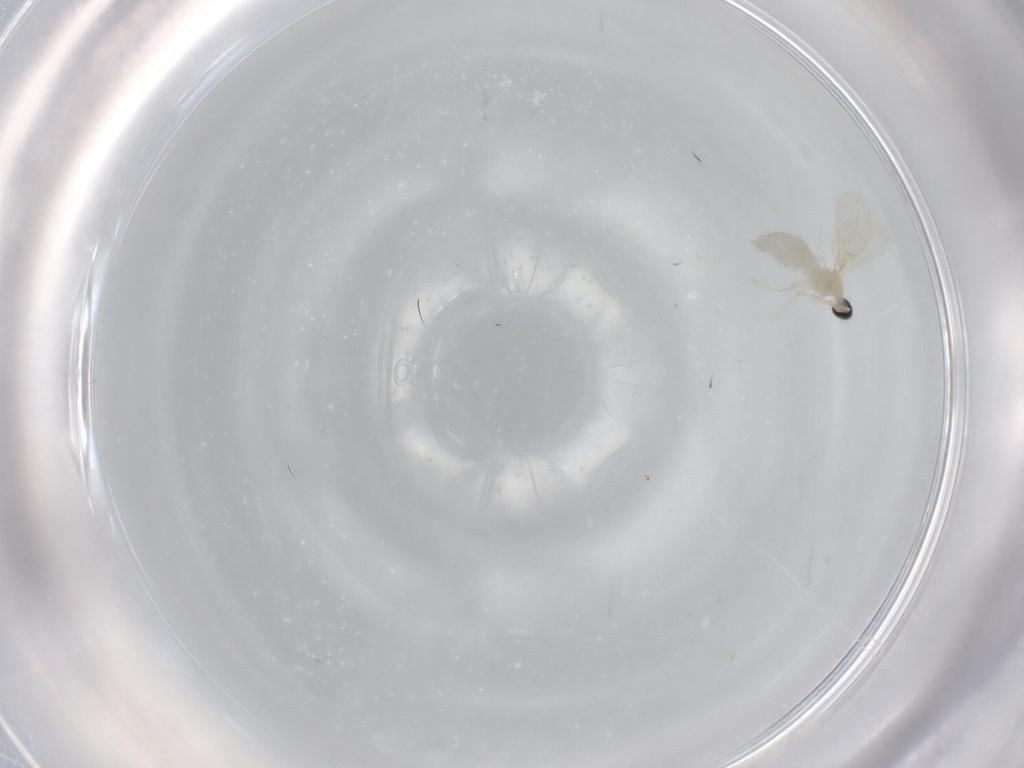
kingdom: Animalia
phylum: Arthropoda
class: Insecta
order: Diptera
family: Cecidomyiidae
